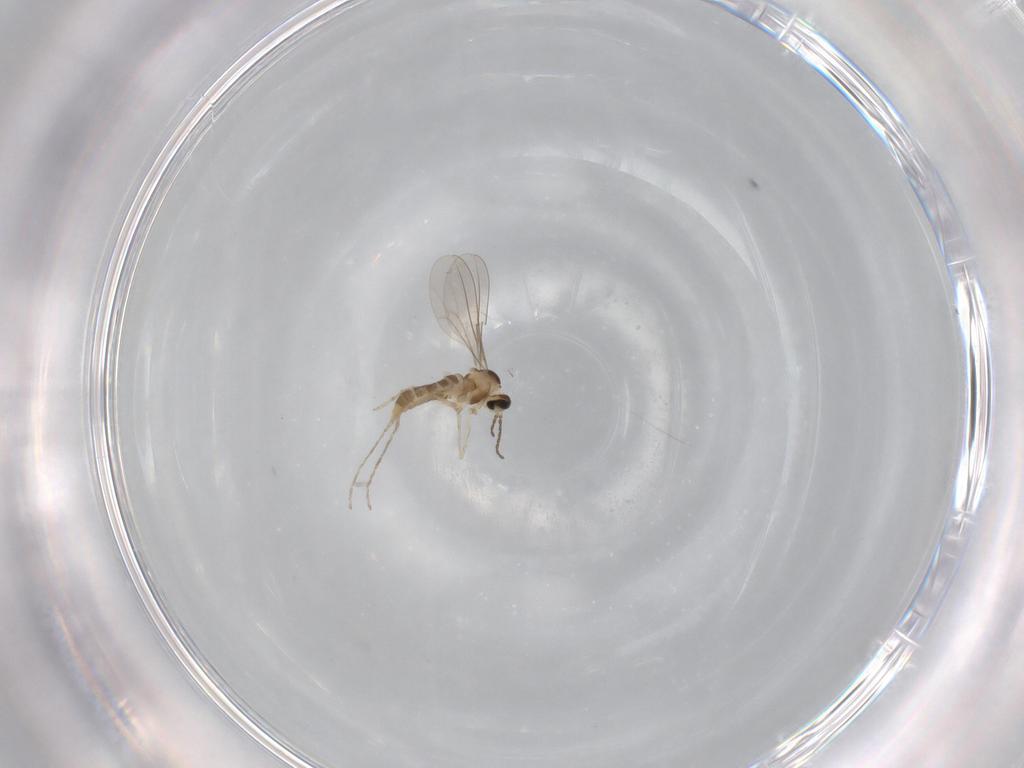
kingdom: Animalia
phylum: Arthropoda
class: Insecta
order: Diptera
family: Cecidomyiidae
